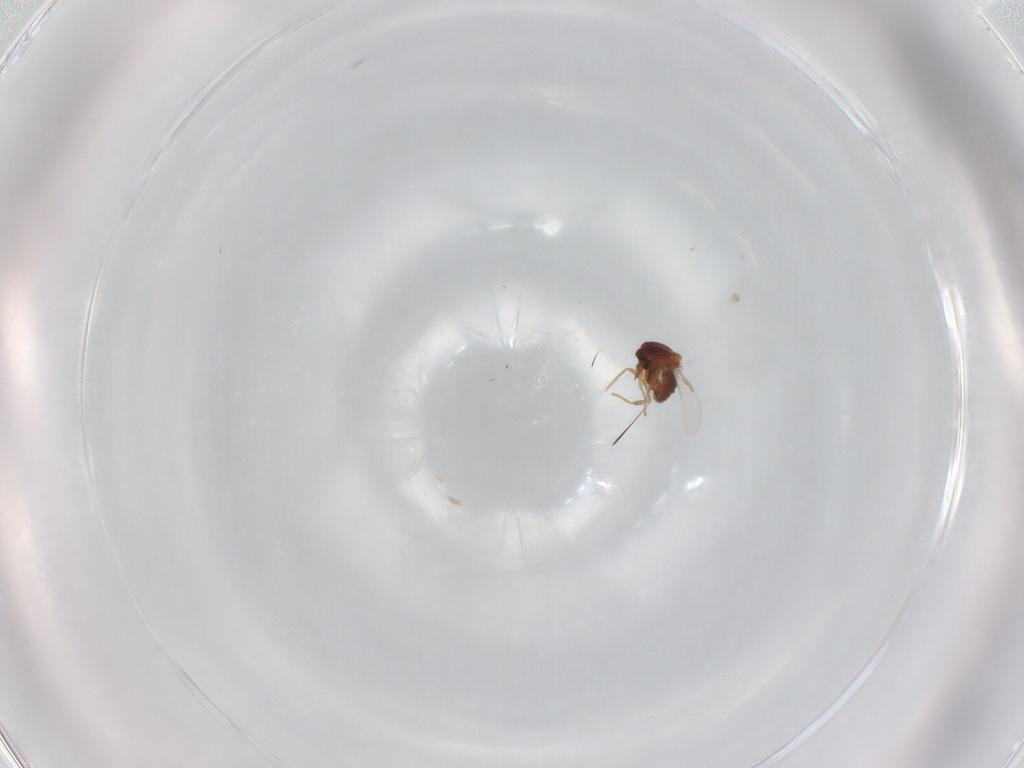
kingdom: Animalia
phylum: Arthropoda
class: Insecta
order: Diptera
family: Ceratopogonidae
